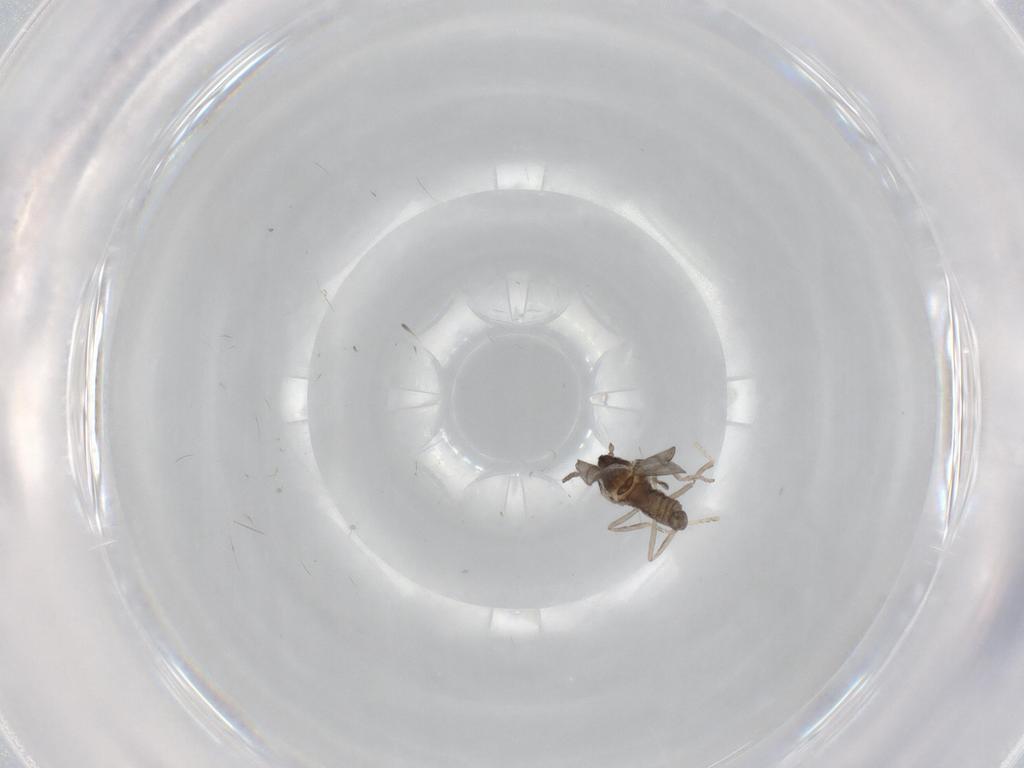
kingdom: Animalia
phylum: Arthropoda
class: Insecta
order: Diptera
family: Cecidomyiidae
